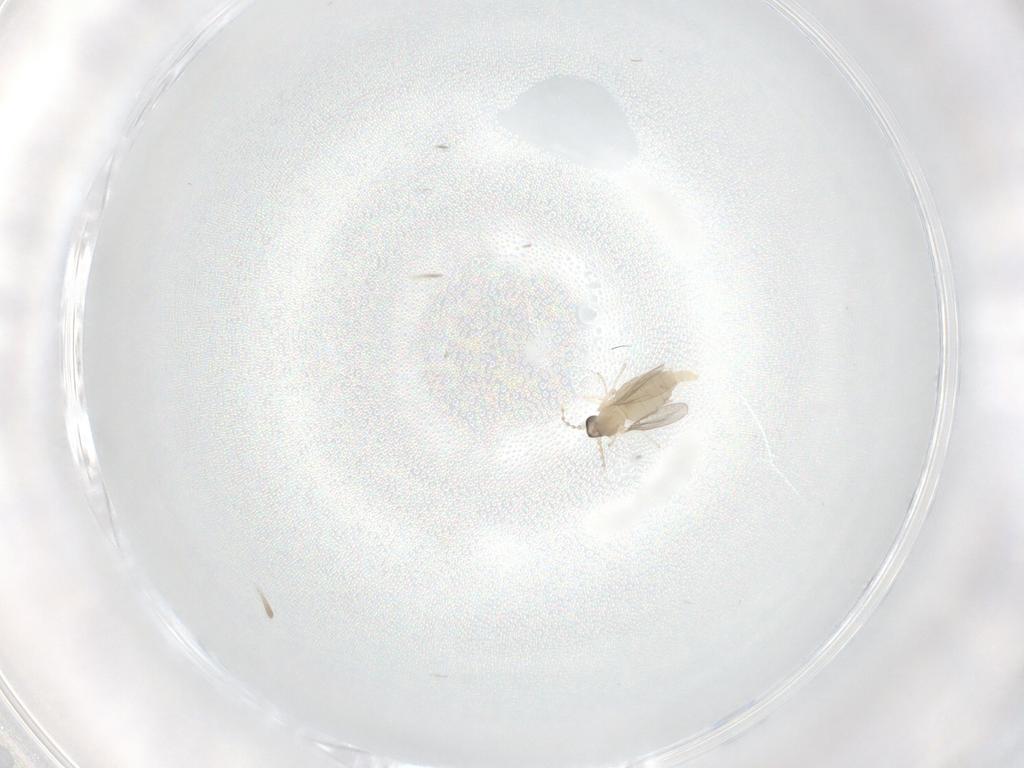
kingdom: Animalia
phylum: Arthropoda
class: Insecta
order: Diptera
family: Cecidomyiidae
